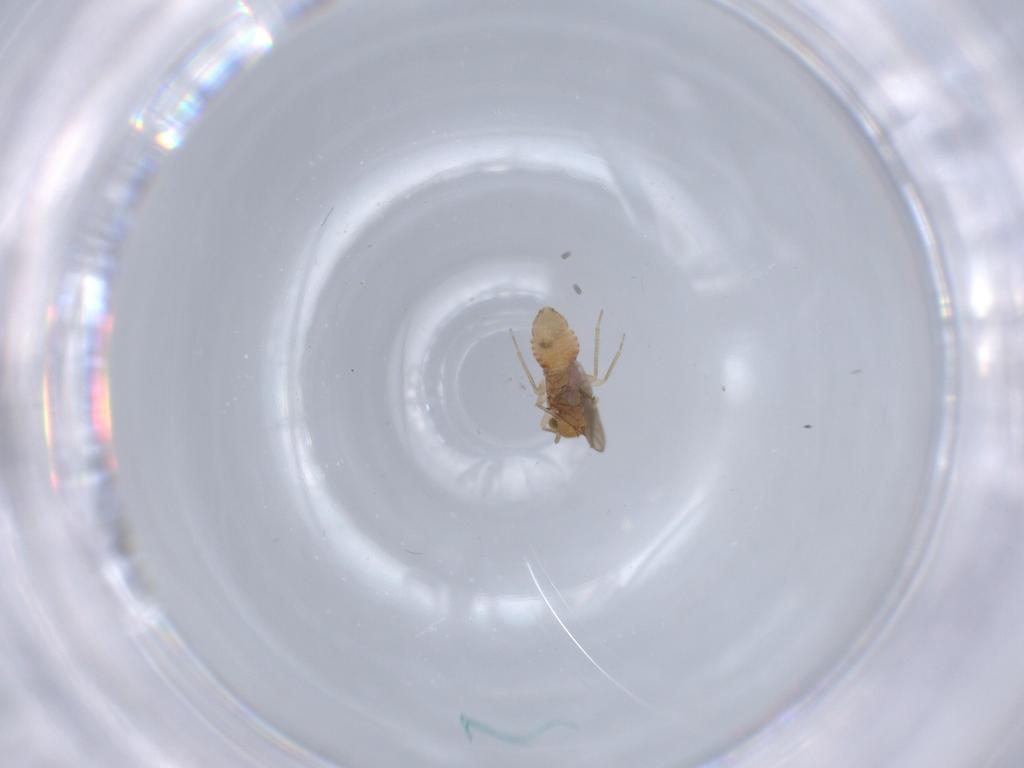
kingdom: Animalia
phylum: Arthropoda
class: Insecta
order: Psocodea
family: Ectopsocidae
